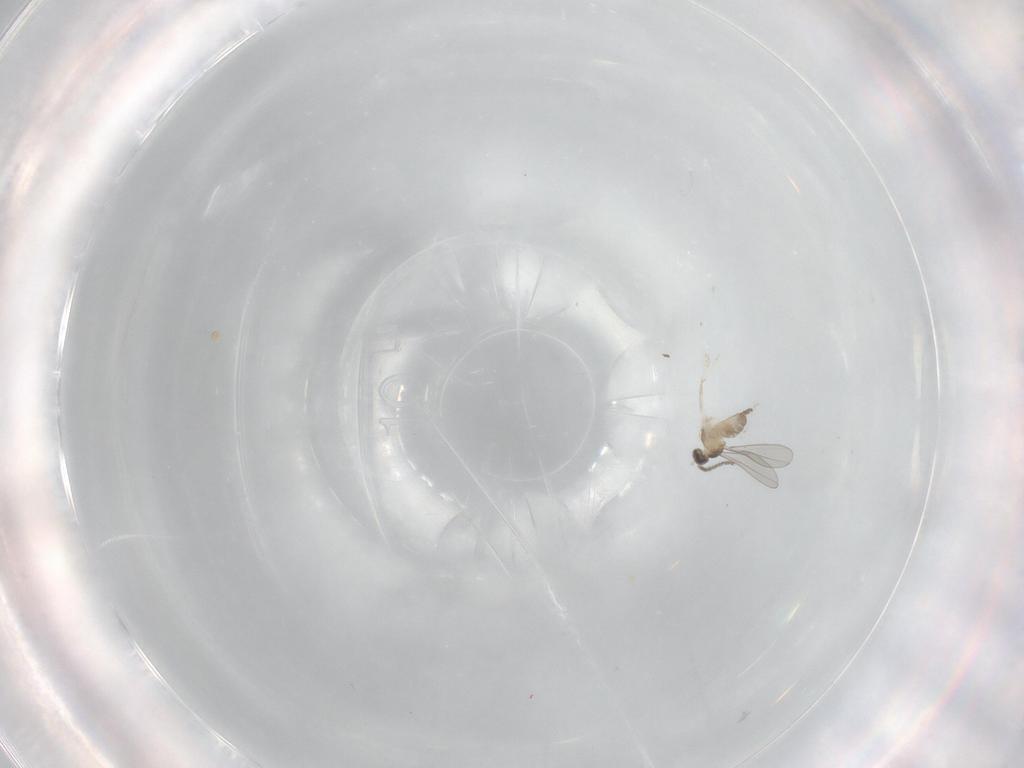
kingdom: Animalia
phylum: Arthropoda
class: Insecta
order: Diptera
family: Cecidomyiidae
